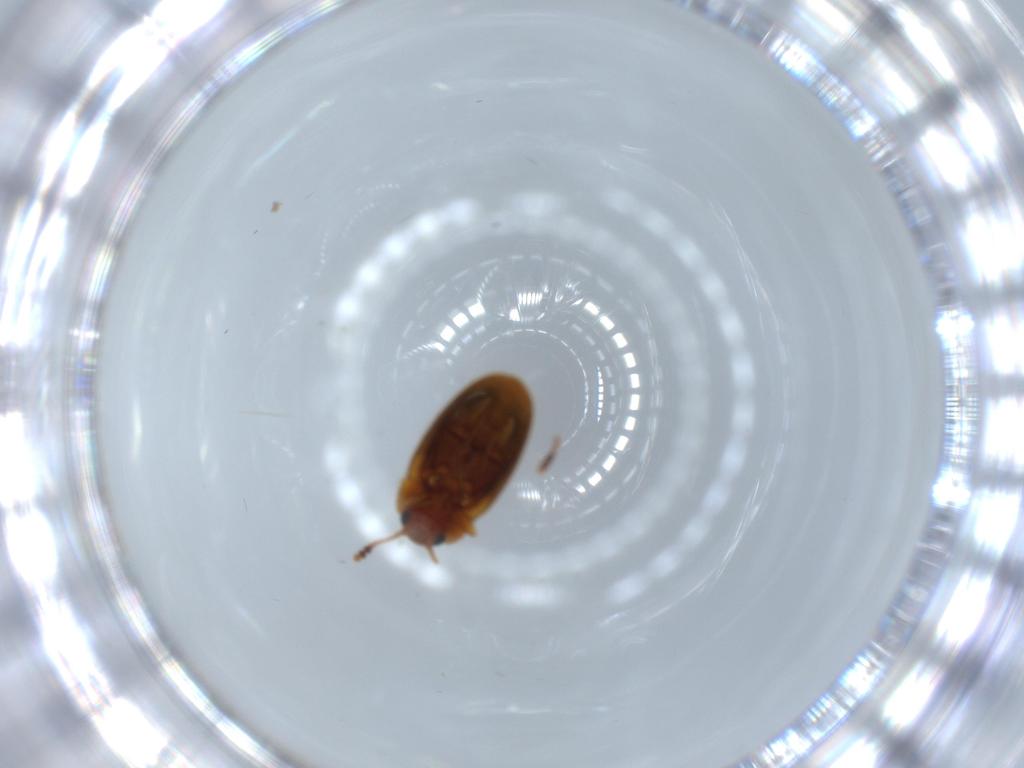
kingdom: Animalia
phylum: Arthropoda
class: Insecta
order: Coleoptera
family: Erotylidae
